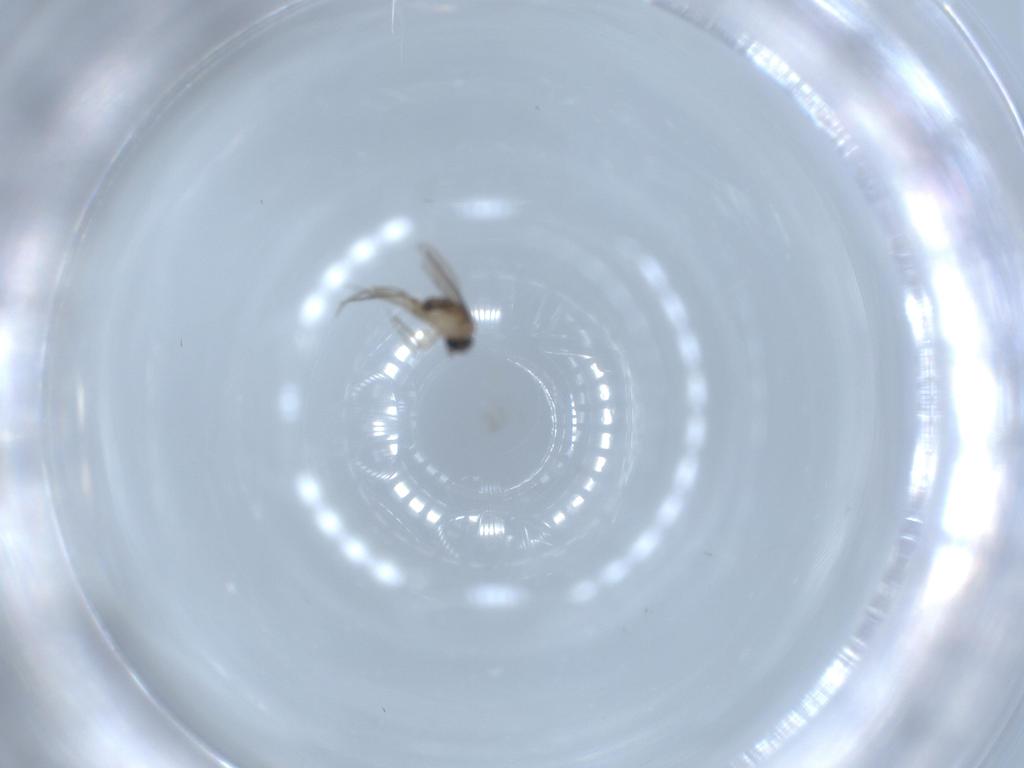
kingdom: Animalia
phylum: Arthropoda
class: Insecta
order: Diptera
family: Phoridae
